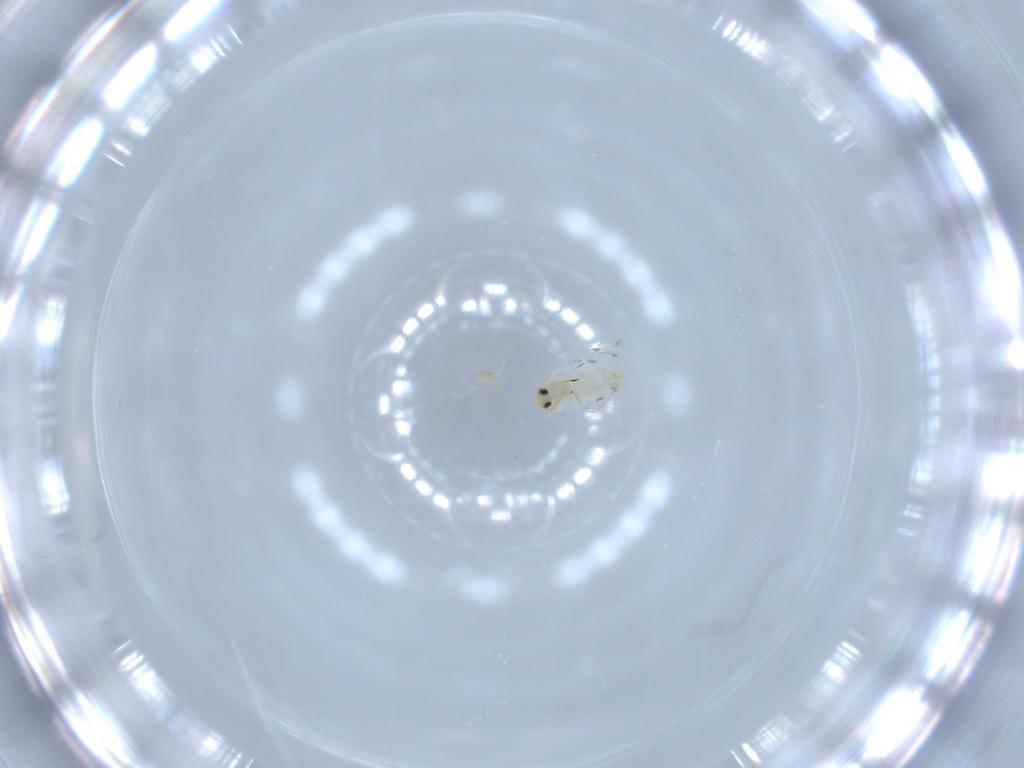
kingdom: Animalia
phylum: Arthropoda
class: Insecta
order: Hemiptera
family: Aleyrodidae
